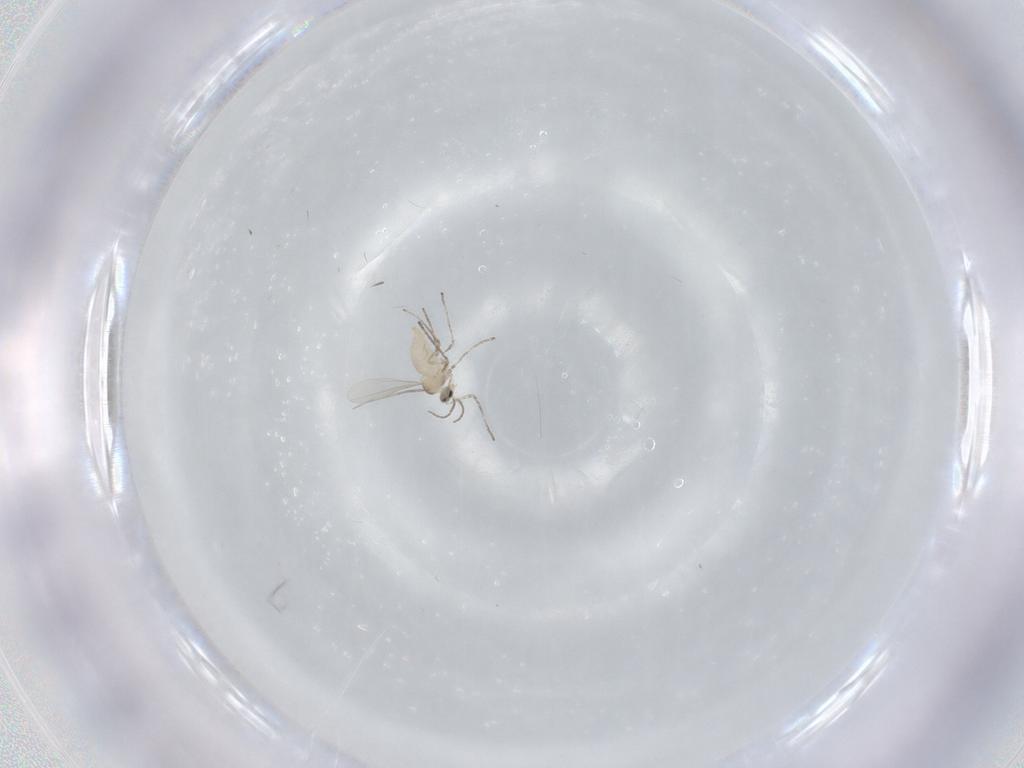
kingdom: Animalia
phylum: Arthropoda
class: Insecta
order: Diptera
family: Cecidomyiidae
